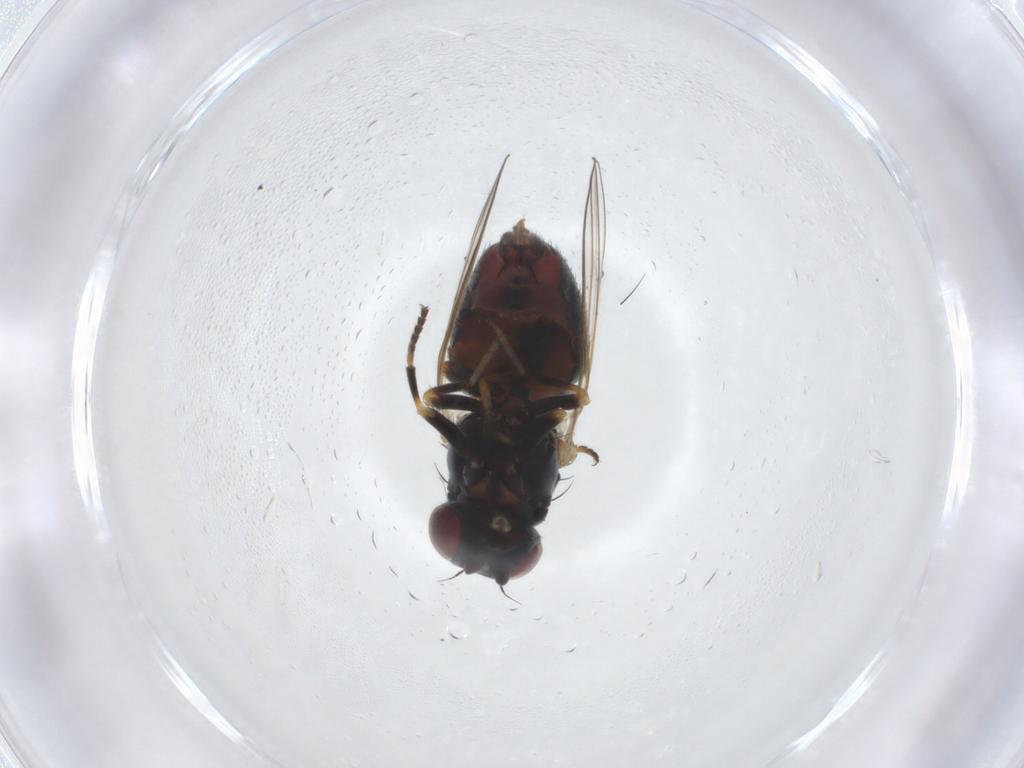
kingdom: Animalia
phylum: Arthropoda
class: Insecta
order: Diptera
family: Chamaemyiidae
